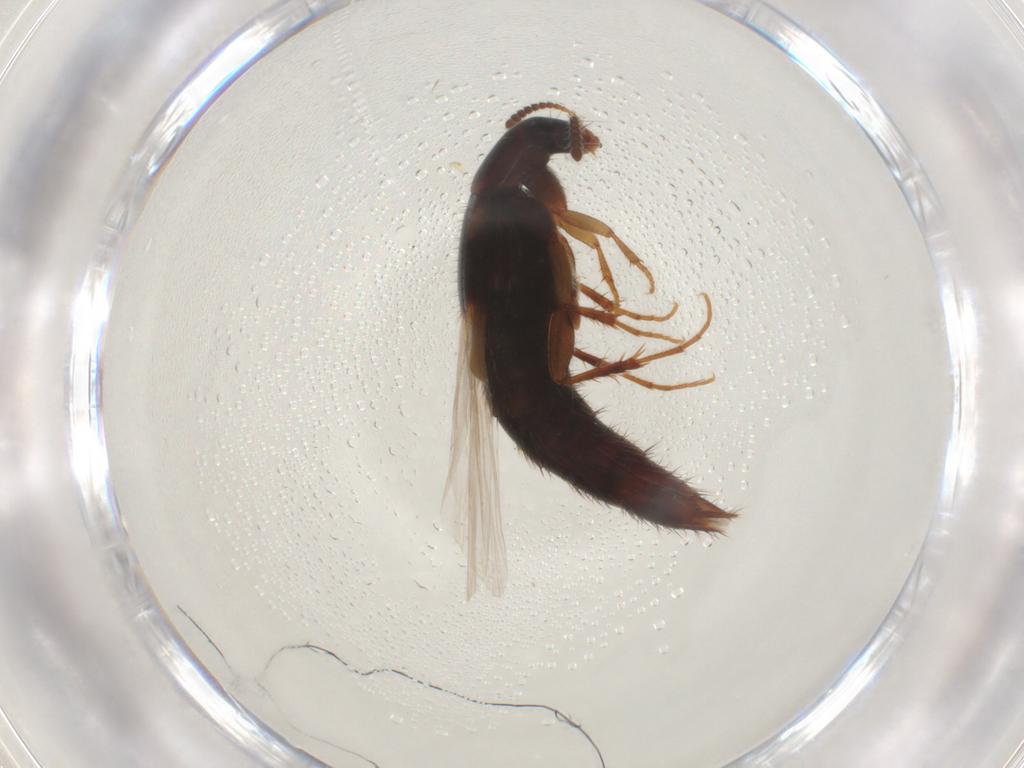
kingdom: Animalia
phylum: Arthropoda
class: Insecta
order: Coleoptera
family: Staphylinidae
